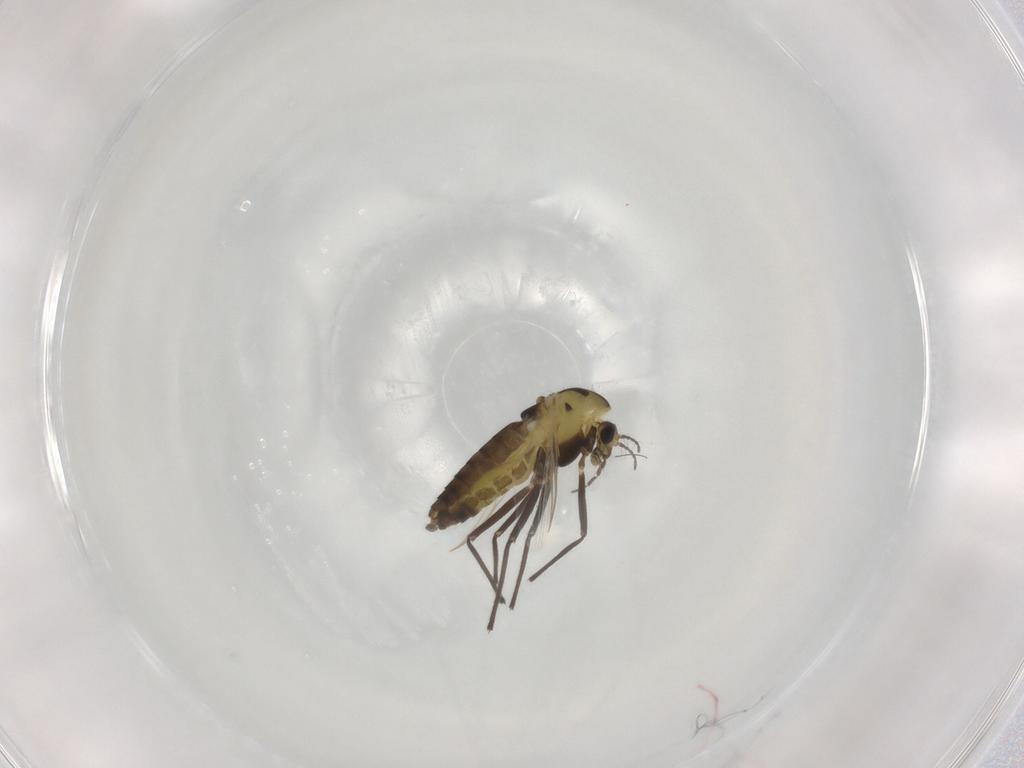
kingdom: Animalia
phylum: Arthropoda
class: Insecta
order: Diptera
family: Chironomidae
